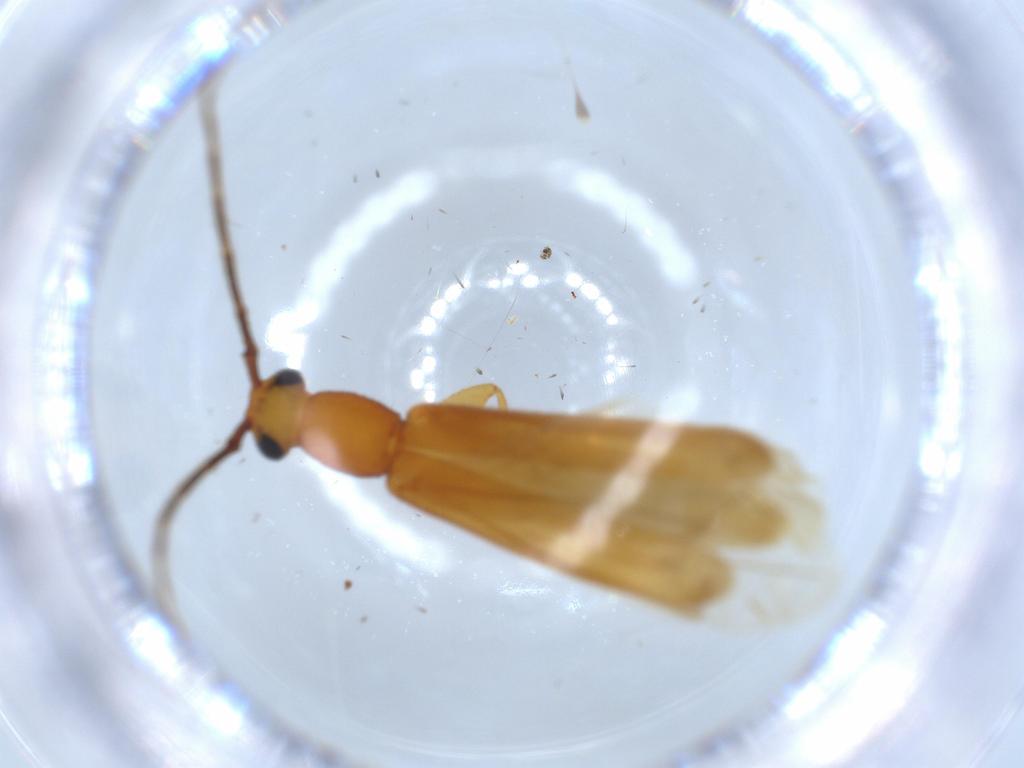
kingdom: Animalia
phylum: Arthropoda
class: Insecta
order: Coleoptera
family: Cerambycidae
